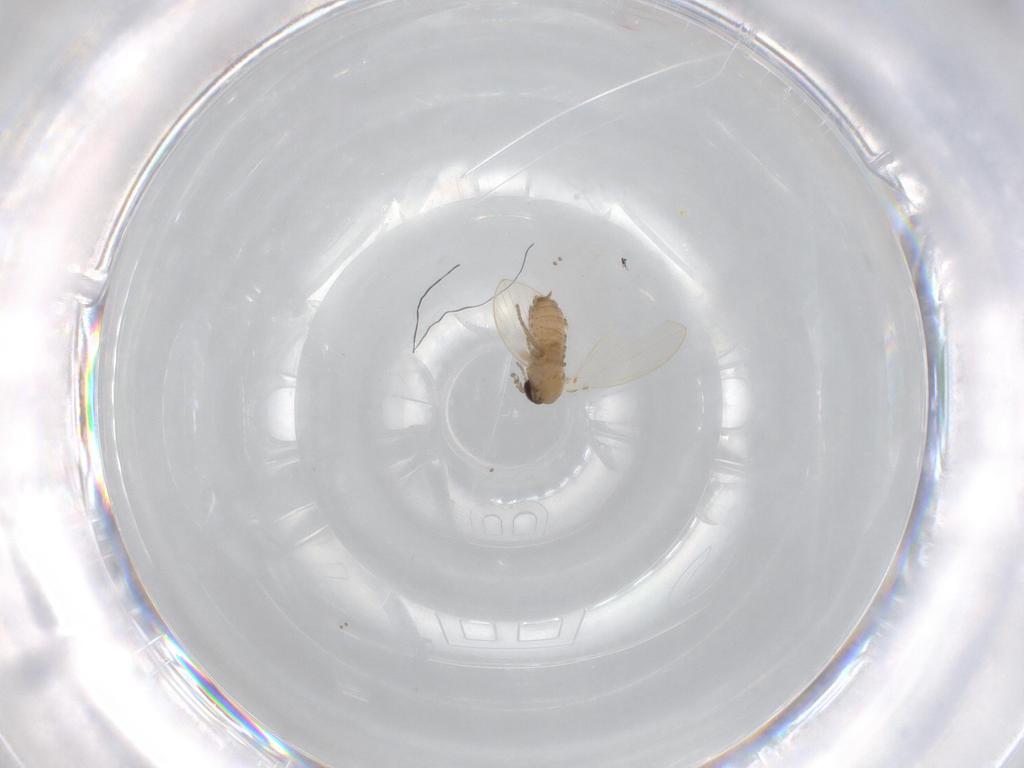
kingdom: Animalia
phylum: Arthropoda
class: Insecta
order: Diptera
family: Psychodidae
